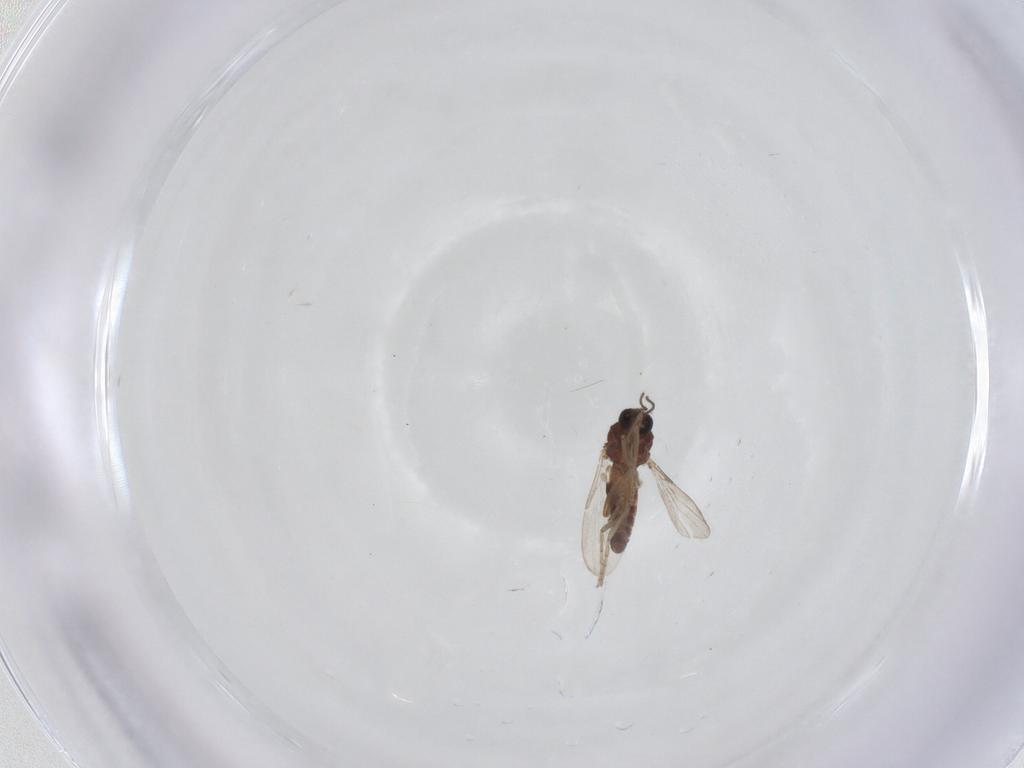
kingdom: Animalia
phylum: Arthropoda
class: Insecta
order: Diptera
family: Ceratopogonidae
